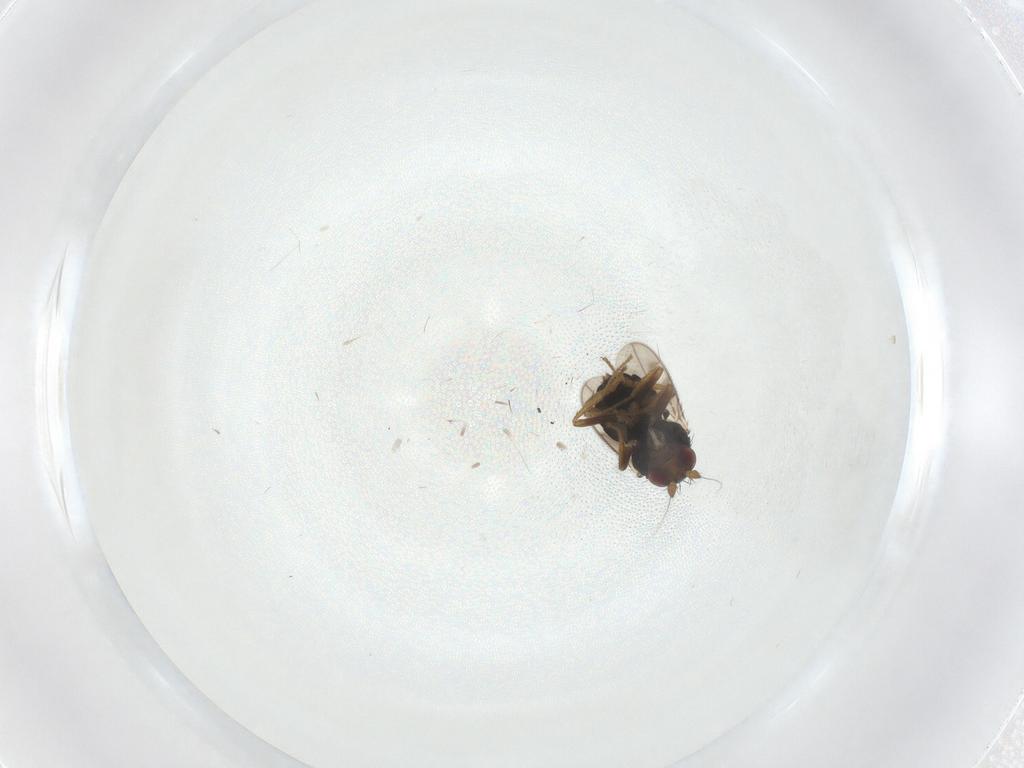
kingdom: Animalia
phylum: Arthropoda
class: Insecta
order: Diptera
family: Sphaeroceridae
